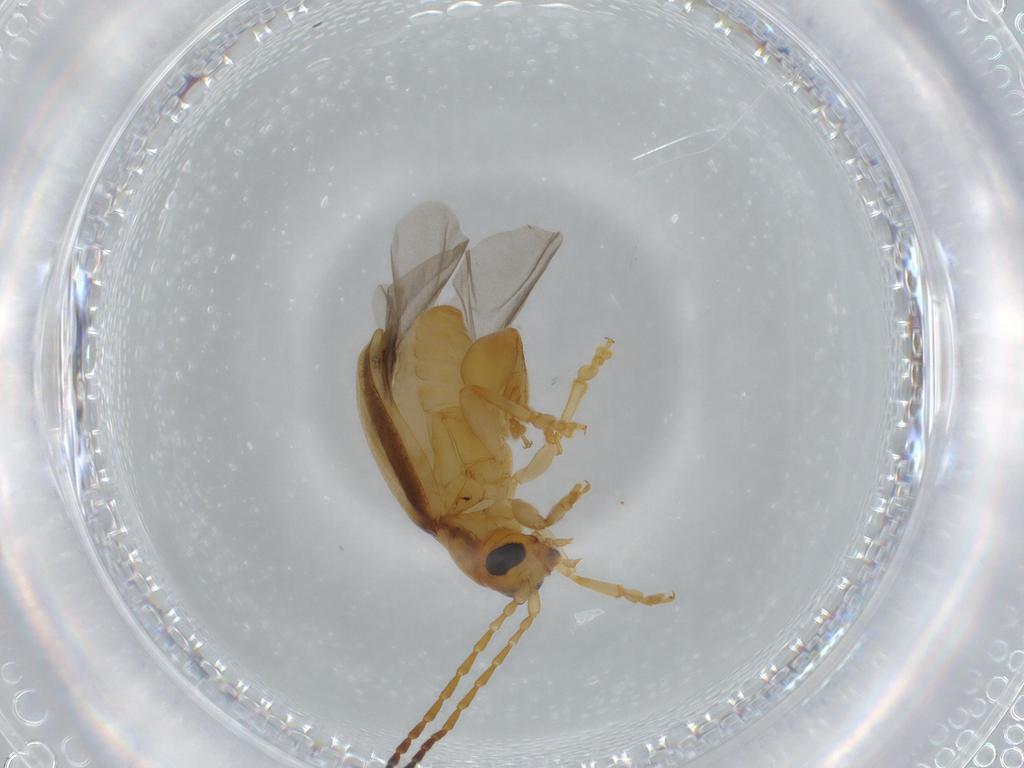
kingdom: Animalia
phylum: Arthropoda
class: Insecta
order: Coleoptera
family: Chrysomelidae
